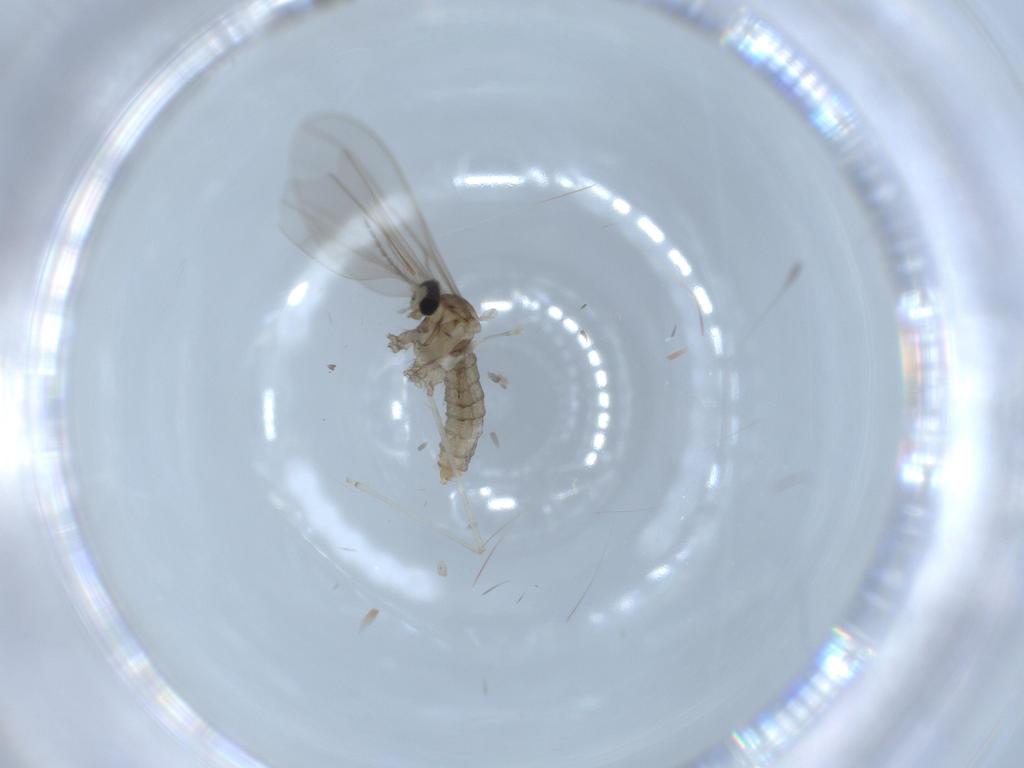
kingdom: Animalia
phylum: Arthropoda
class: Insecta
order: Diptera
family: Cecidomyiidae
